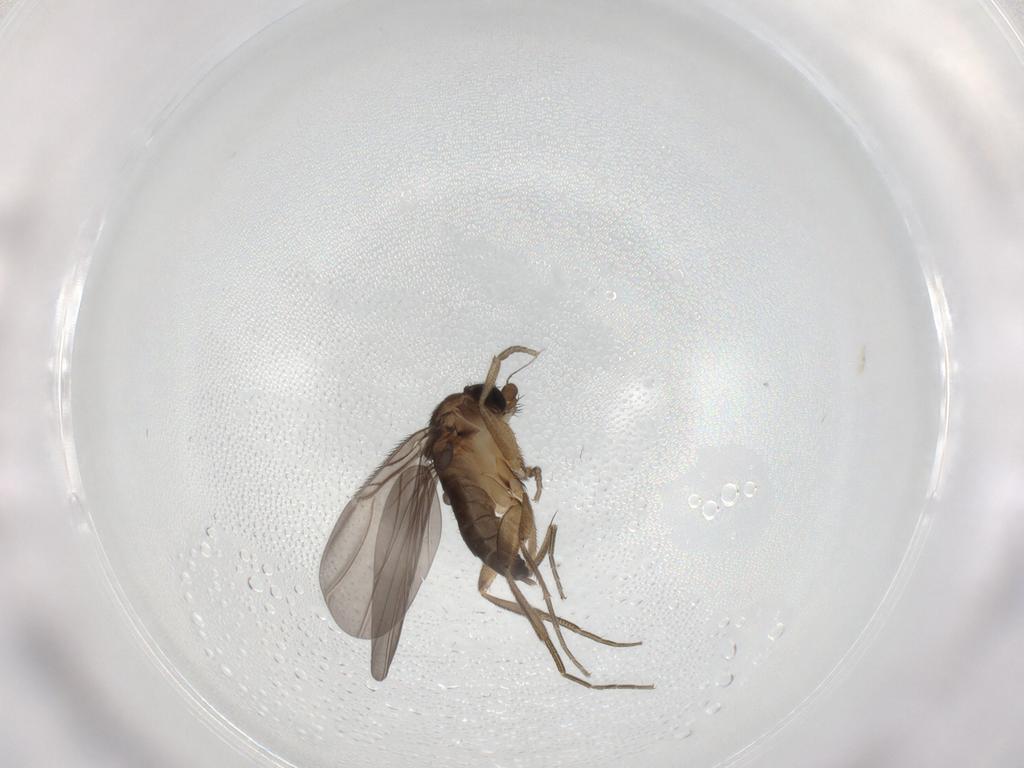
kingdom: Animalia
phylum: Arthropoda
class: Insecta
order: Diptera
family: Phoridae
